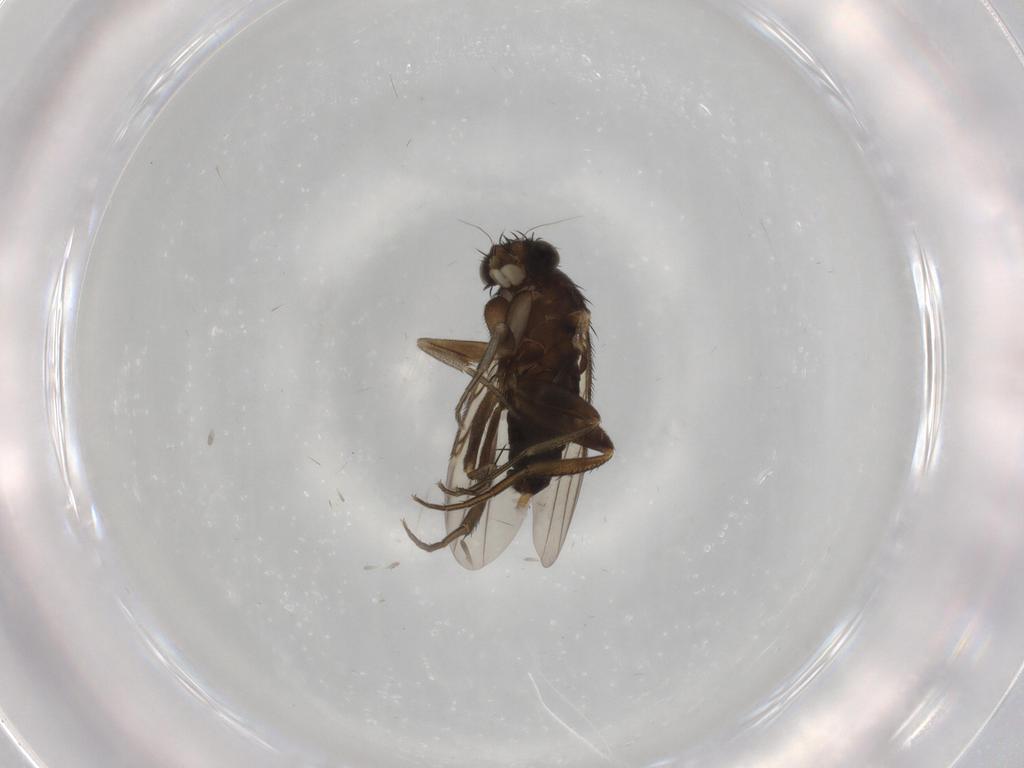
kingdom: Animalia
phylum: Arthropoda
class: Insecta
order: Diptera
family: Phoridae
